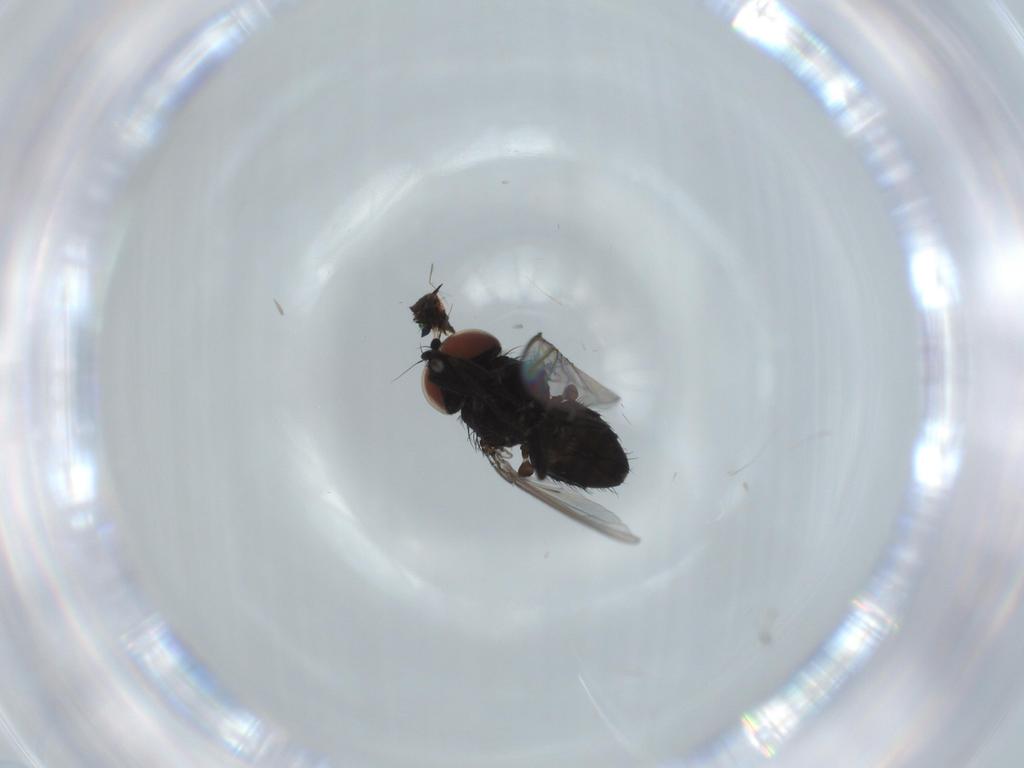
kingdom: Animalia
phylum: Arthropoda
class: Insecta
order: Diptera
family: Milichiidae
